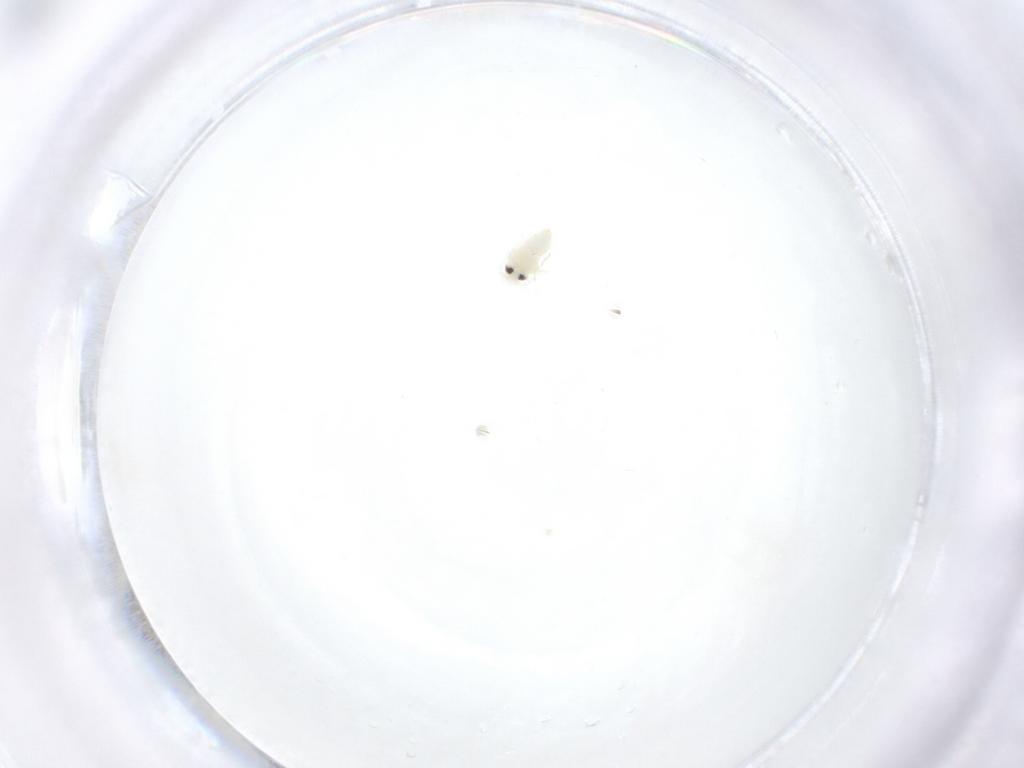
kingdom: Animalia
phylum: Arthropoda
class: Insecta
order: Hemiptera
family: Aleyrodidae
